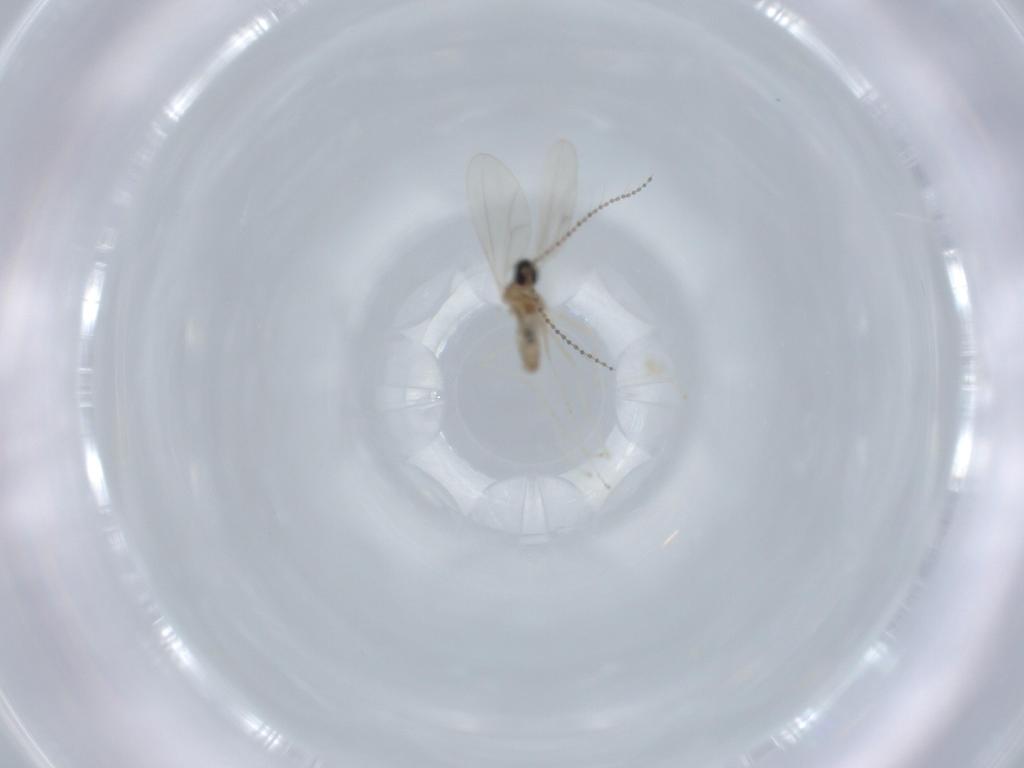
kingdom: Animalia
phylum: Arthropoda
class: Insecta
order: Diptera
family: Cecidomyiidae
